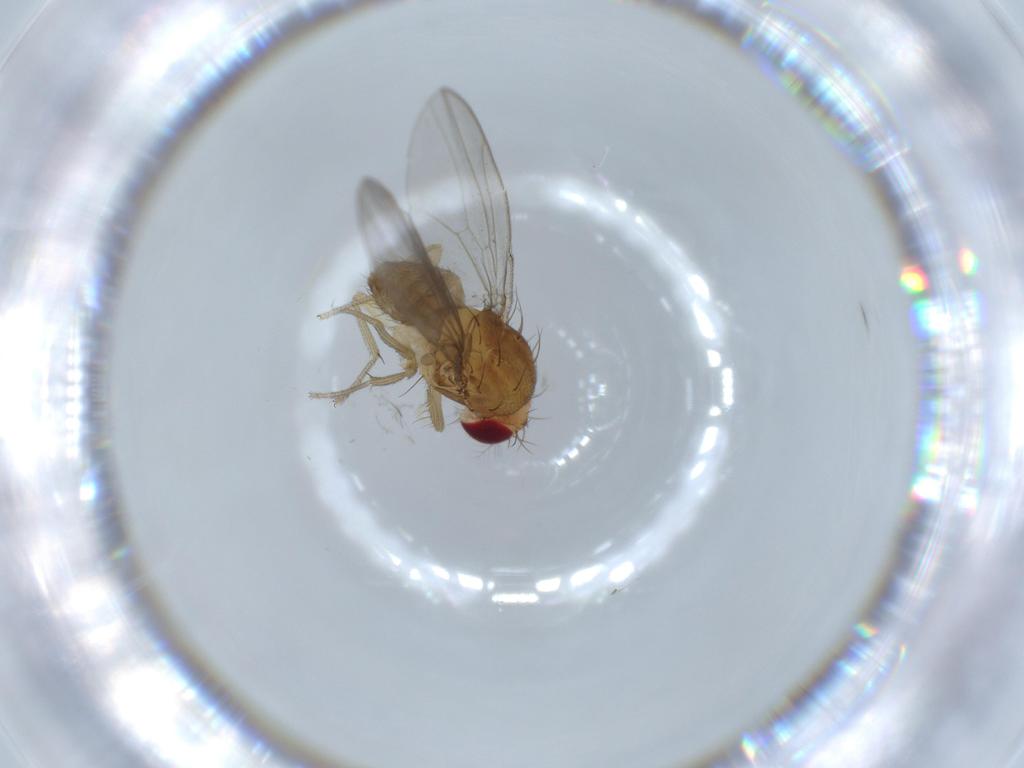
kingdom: Animalia
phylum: Arthropoda
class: Insecta
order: Diptera
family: Drosophilidae
